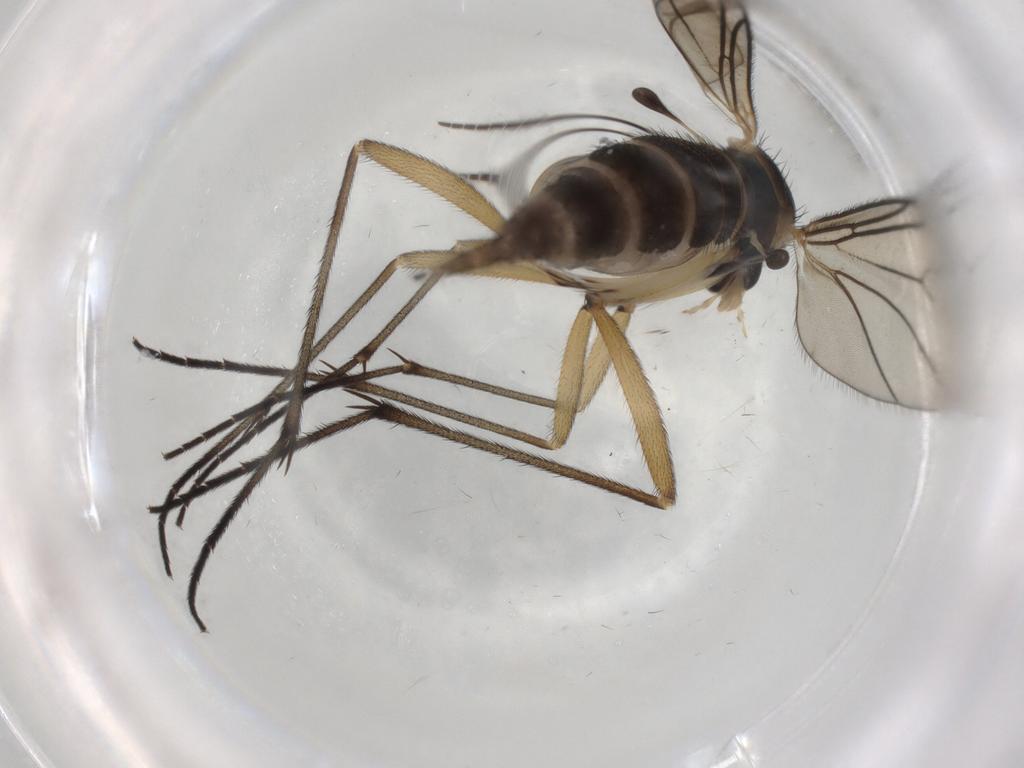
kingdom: Animalia
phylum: Arthropoda
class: Insecta
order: Diptera
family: Sciaridae
